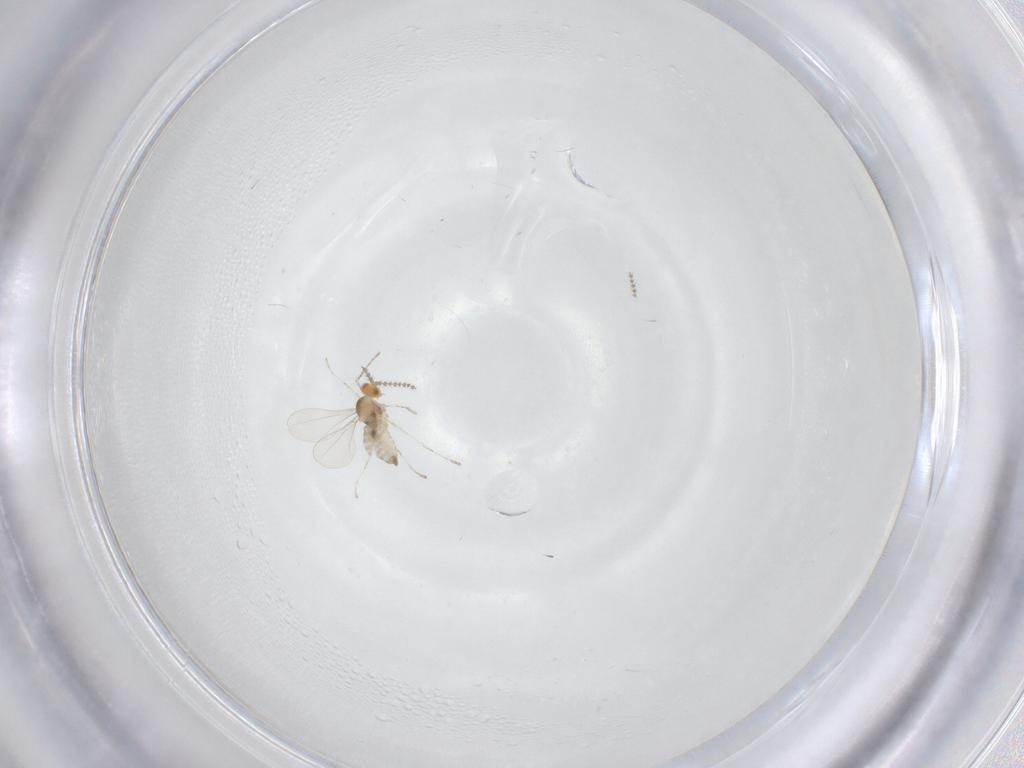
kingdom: Animalia
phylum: Arthropoda
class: Insecta
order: Diptera
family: Cecidomyiidae
